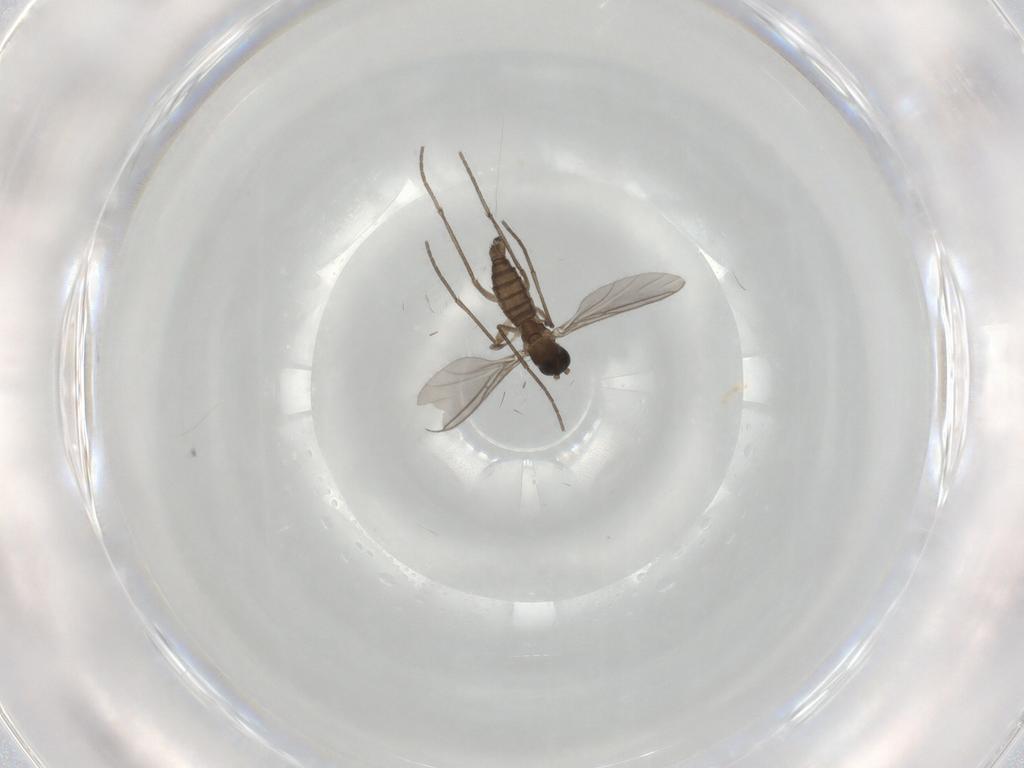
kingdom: Animalia
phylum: Arthropoda
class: Insecta
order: Diptera
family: Sciaridae
